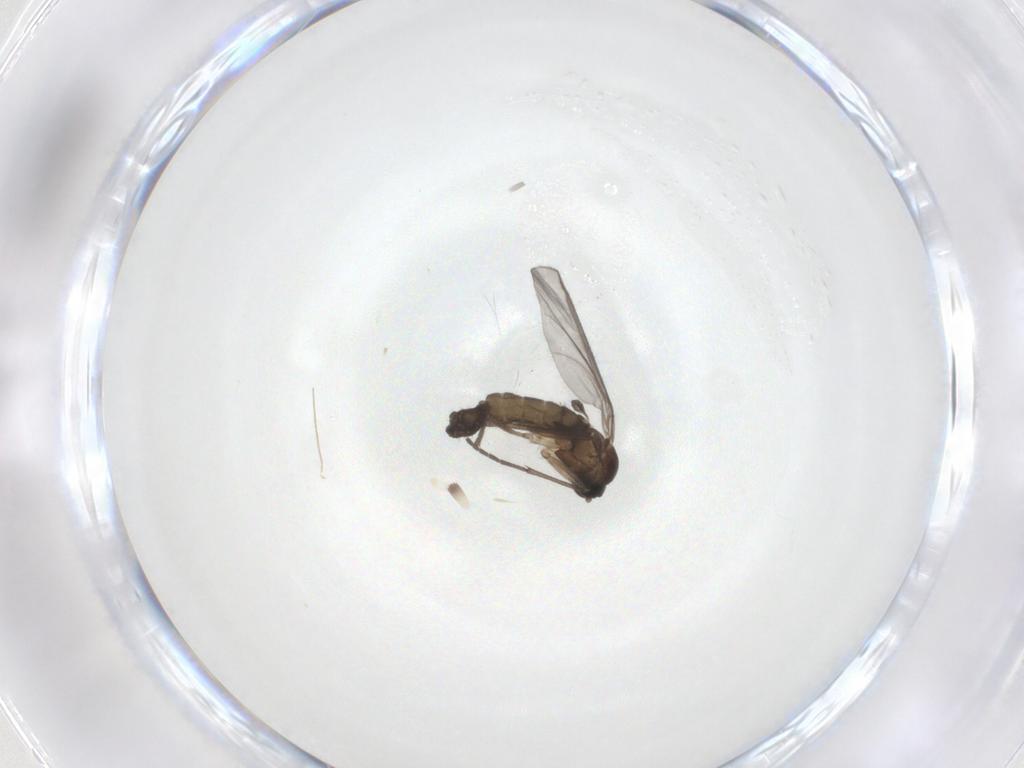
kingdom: Animalia
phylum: Arthropoda
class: Insecta
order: Diptera
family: Sciaridae
